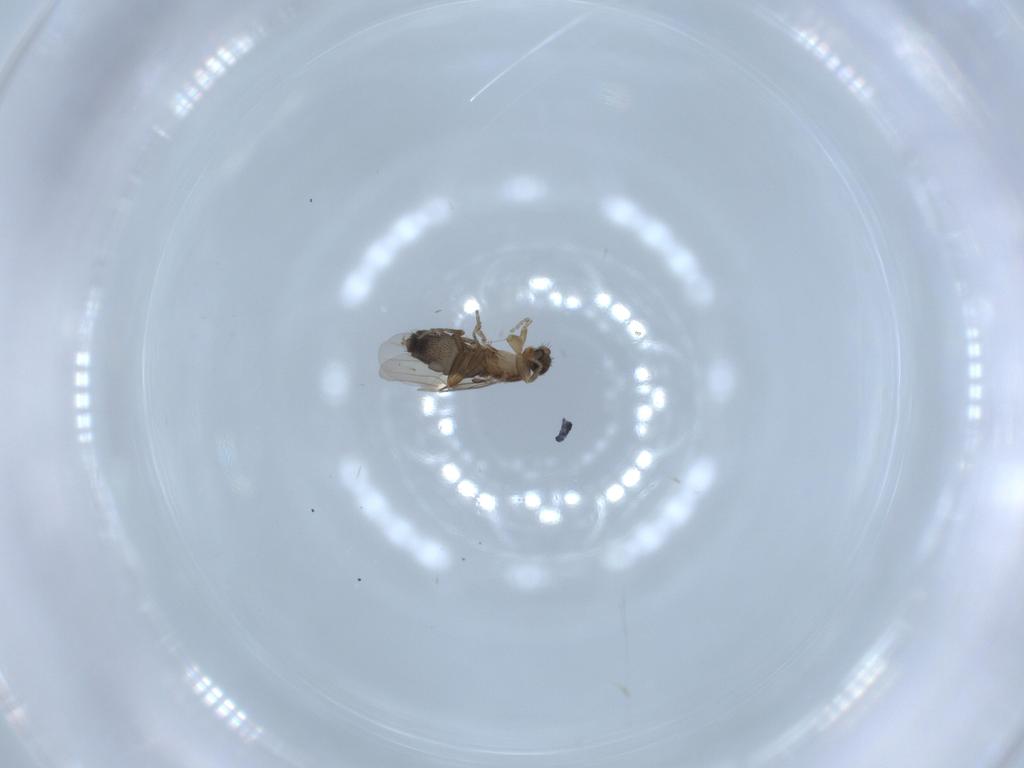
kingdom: Animalia
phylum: Arthropoda
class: Insecta
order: Diptera
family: Phoridae
